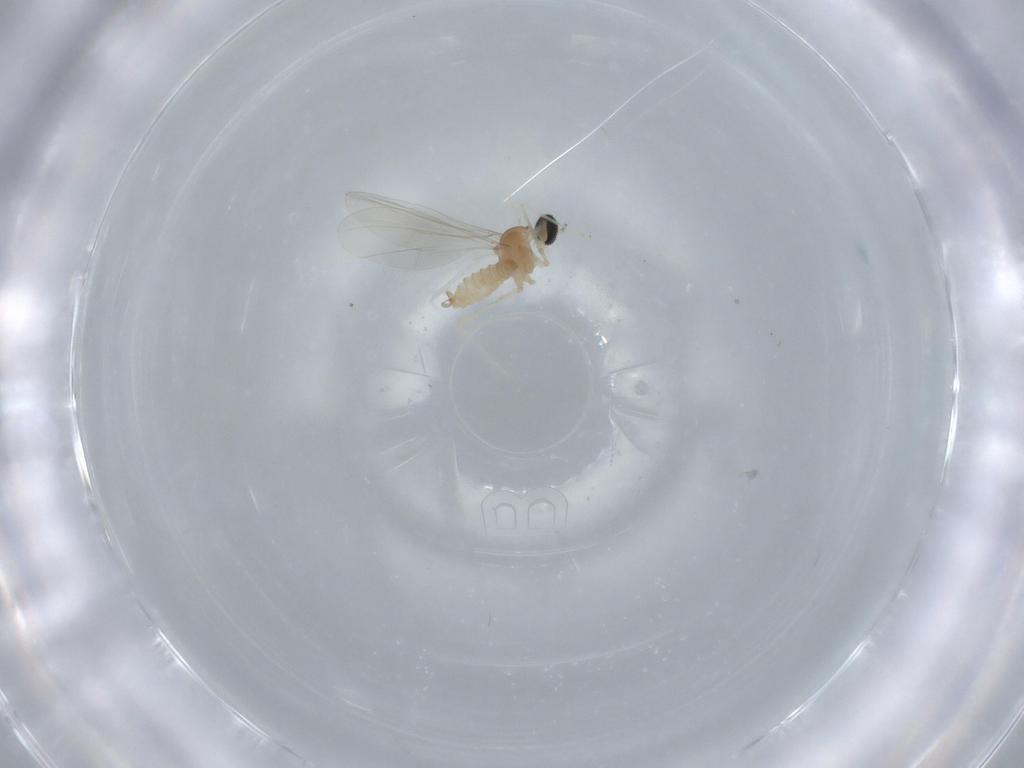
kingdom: Animalia
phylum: Arthropoda
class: Insecta
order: Diptera
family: Cecidomyiidae
